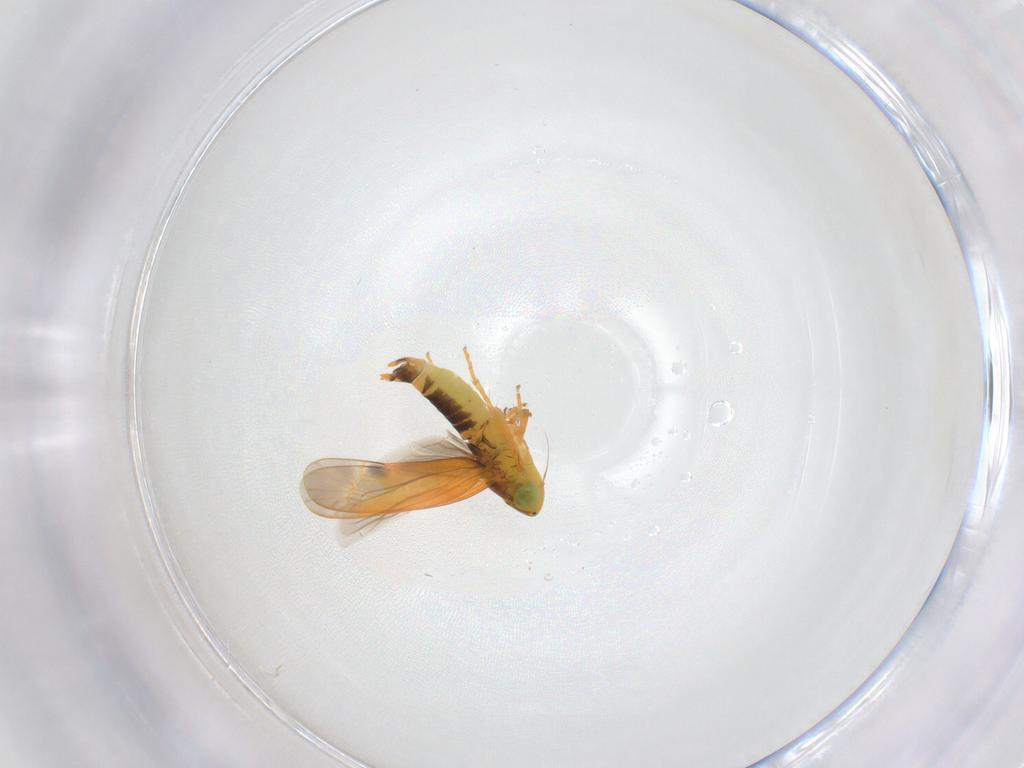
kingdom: Animalia
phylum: Arthropoda
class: Insecta
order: Hemiptera
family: Cicadellidae
